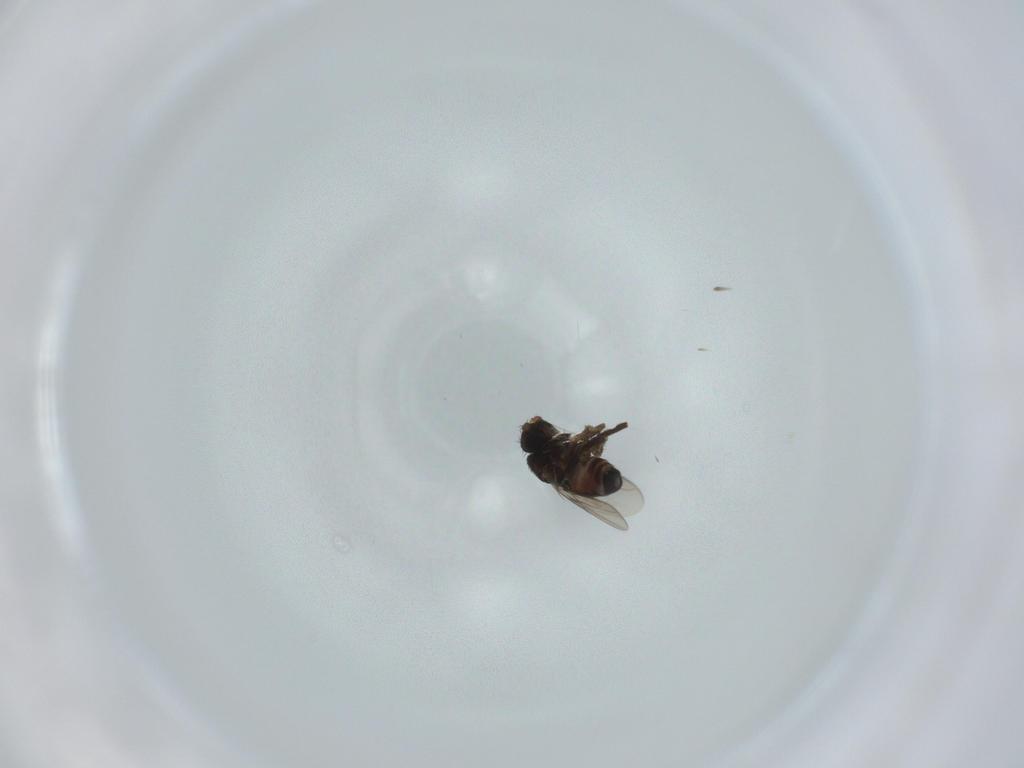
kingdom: Animalia
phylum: Arthropoda
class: Insecta
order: Diptera
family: Sphaeroceridae
